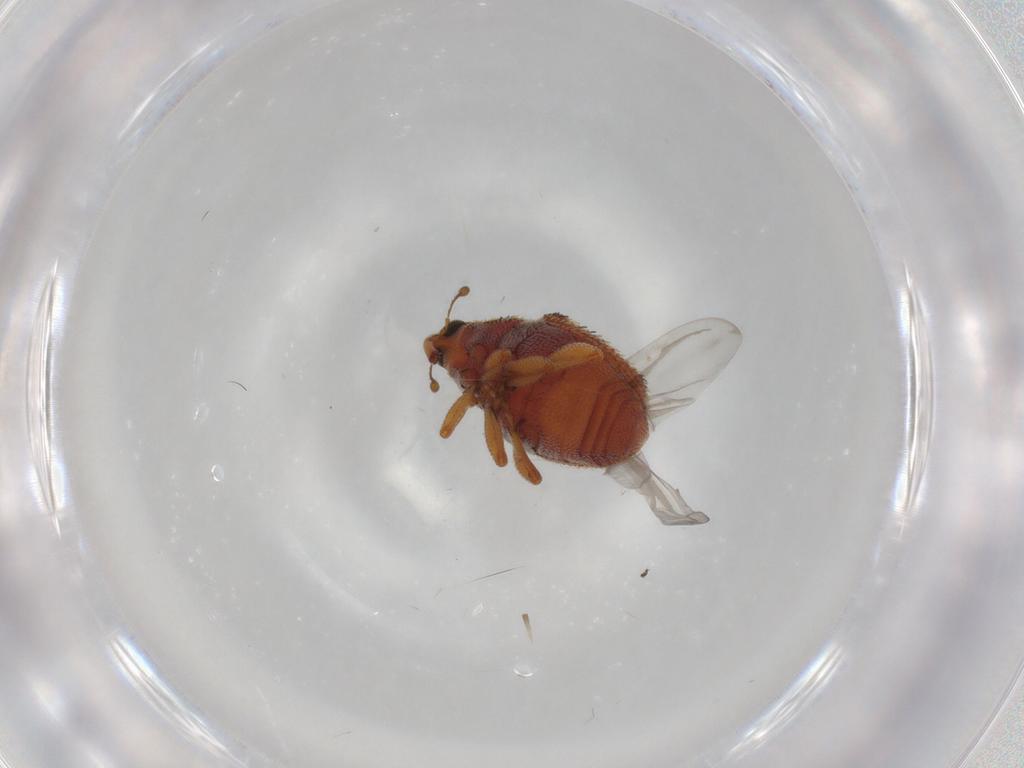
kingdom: Animalia
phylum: Arthropoda
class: Insecta
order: Coleoptera
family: Curculionidae
